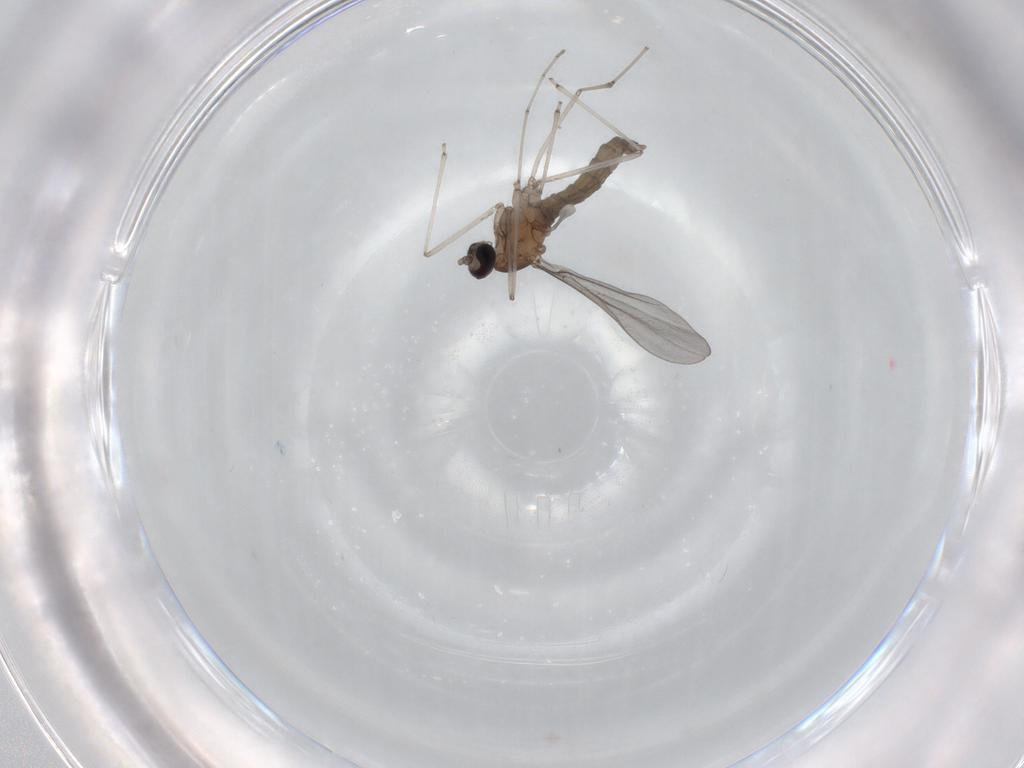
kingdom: Animalia
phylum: Arthropoda
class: Insecta
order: Diptera
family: Cecidomyiidae
